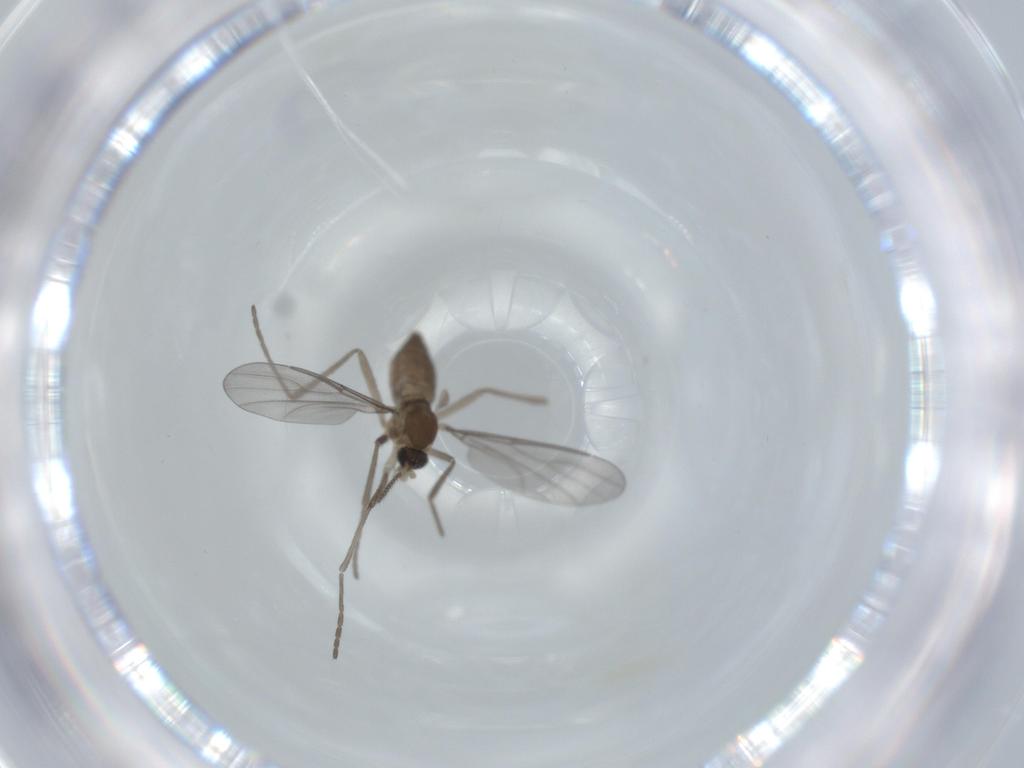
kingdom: Animalia
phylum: Arthropoda
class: Insecta
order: Diptera
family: Cecidomyiidae
